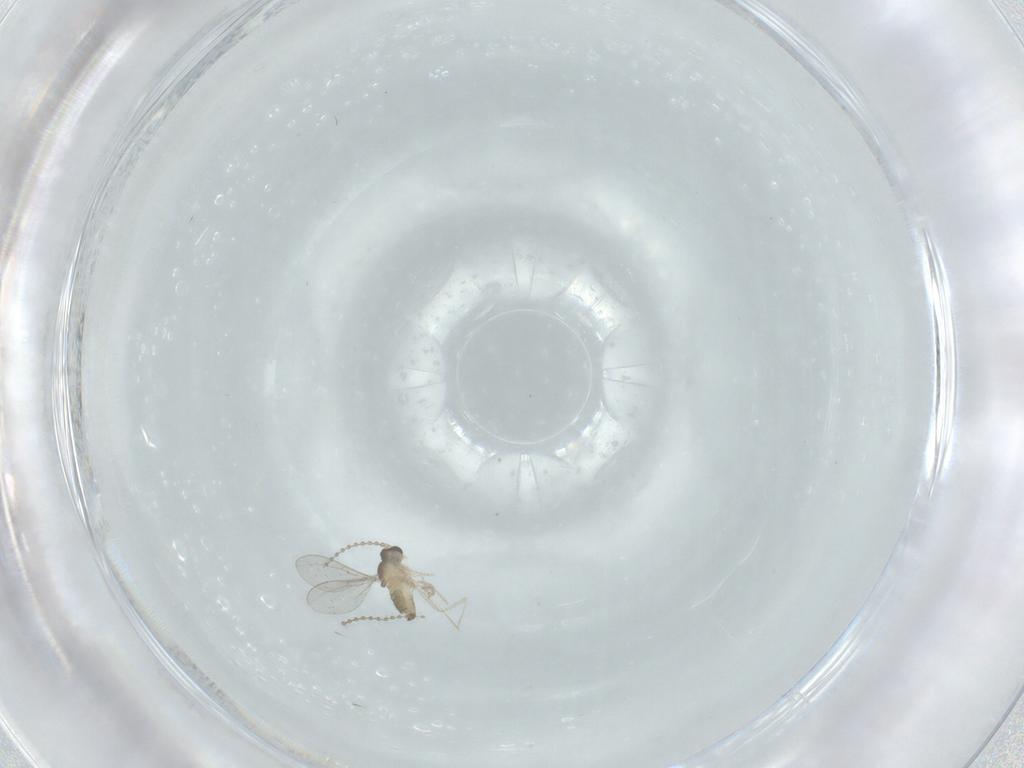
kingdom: Animalia
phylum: Arthropoda
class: Insecta
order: Diptera
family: Cecidomyiidae
